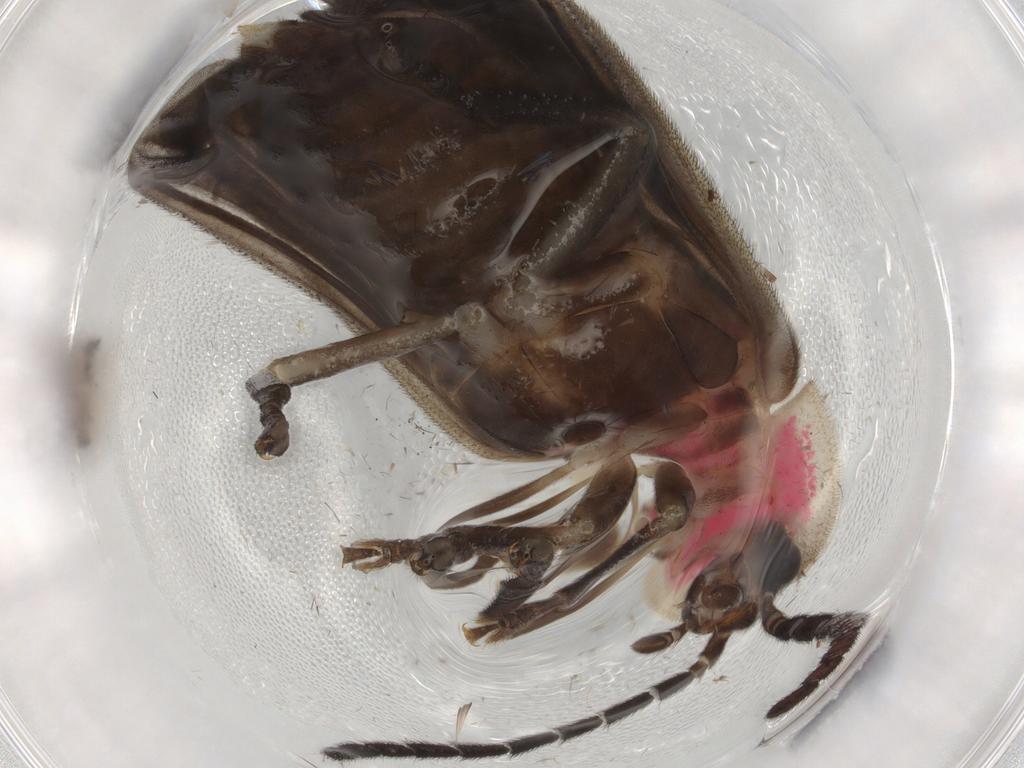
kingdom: Animalia
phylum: Arthropoda
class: Insecta
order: Coleoptera
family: Lampyridae
